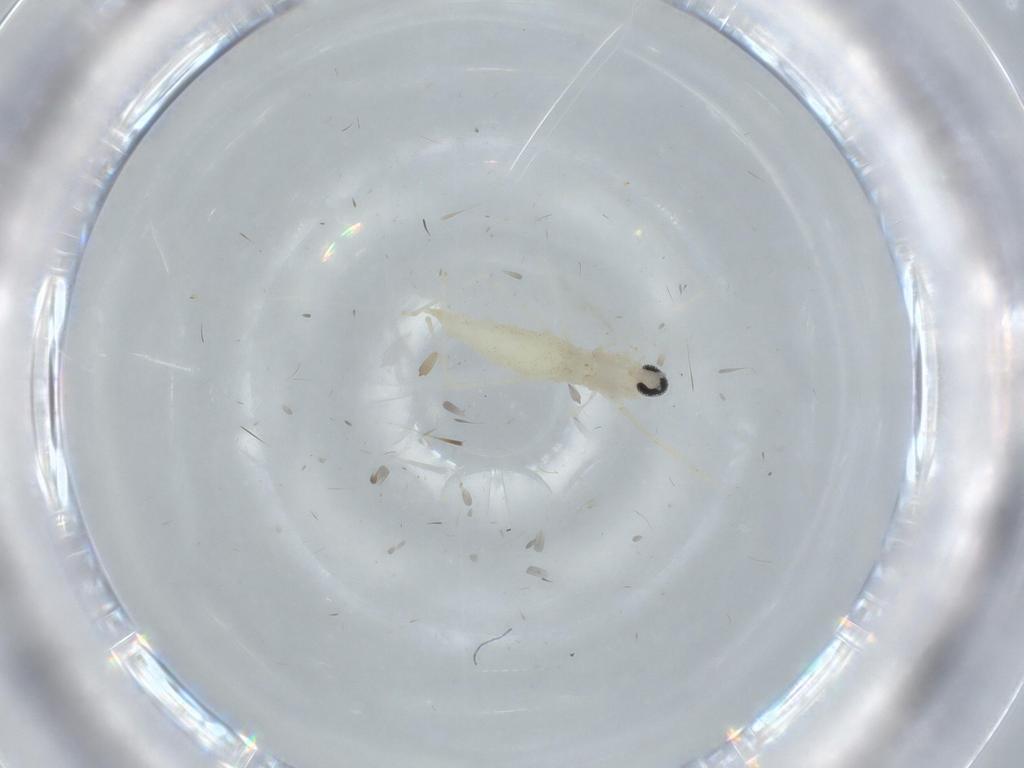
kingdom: Animalia
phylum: Arthropoda
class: Insecta
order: Diptera
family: Cecidomyiidae
